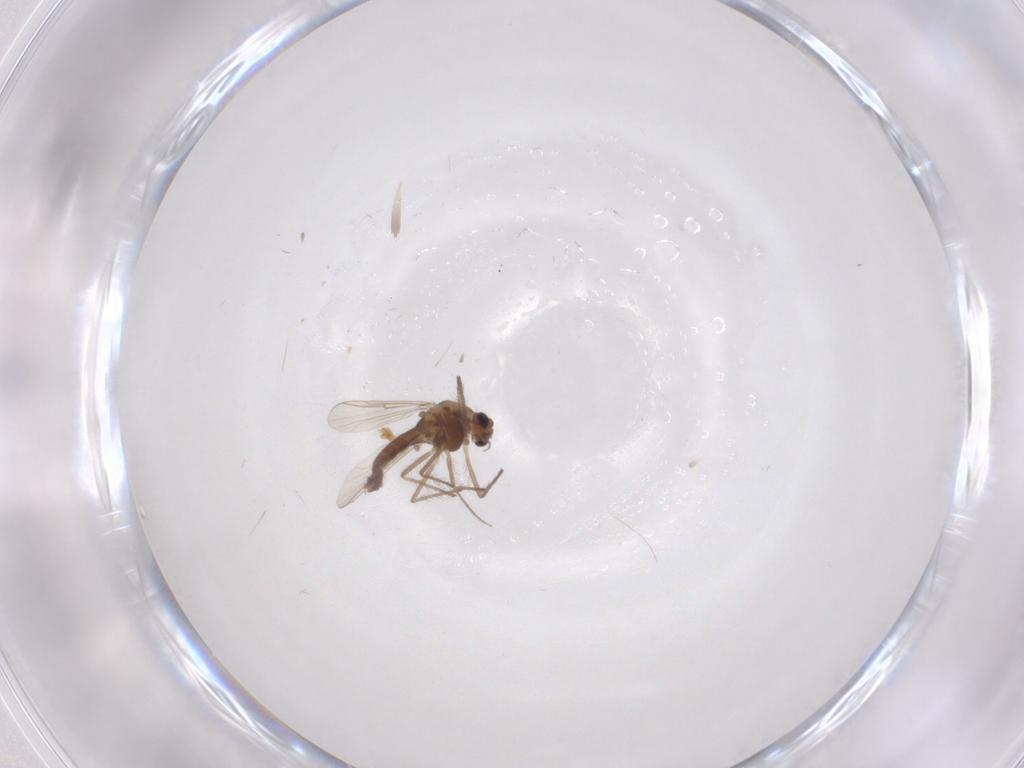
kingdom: Animalia
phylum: Arthropoda
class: Insecta
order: Diptera
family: Chironomidae
